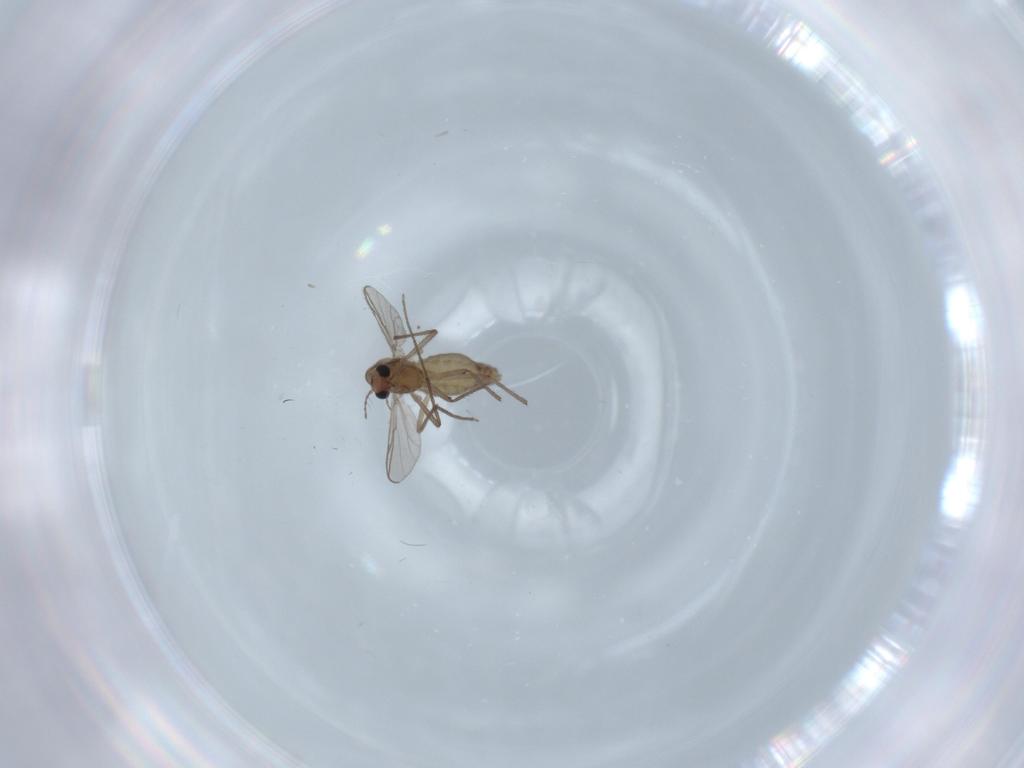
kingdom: Animalia
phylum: Arthropoda
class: Insecta
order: Diptera
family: Chironomidae
